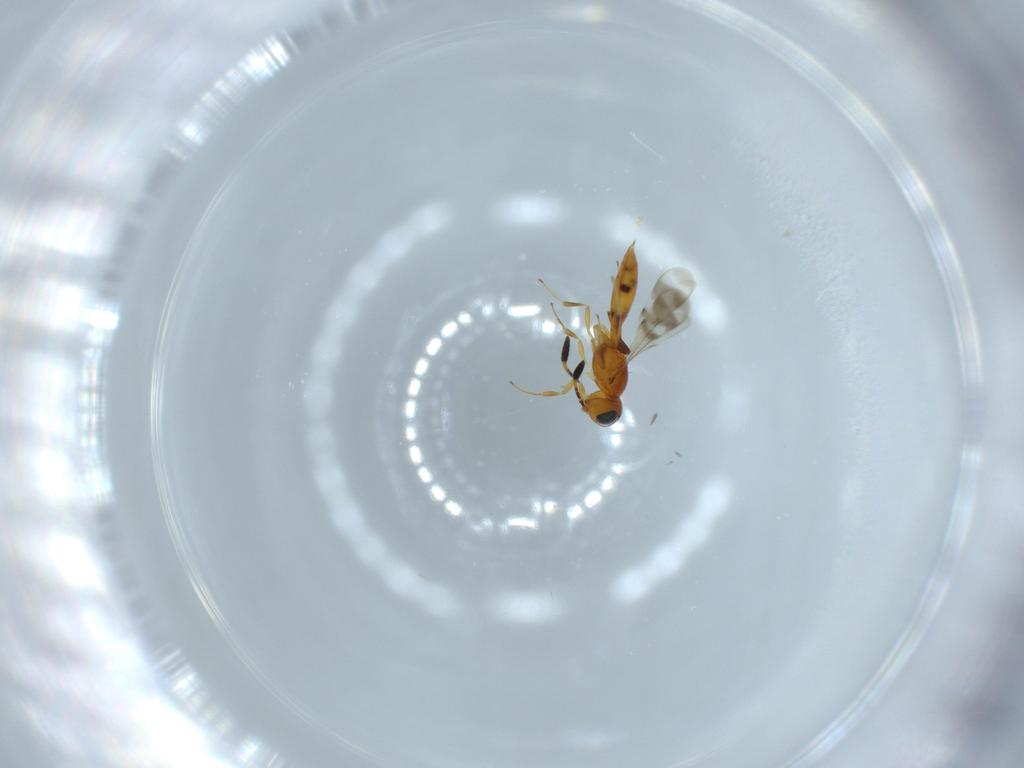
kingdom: Animalia
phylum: Arthropoda
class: Insecta
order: Hymenoptera
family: Scelionidae
